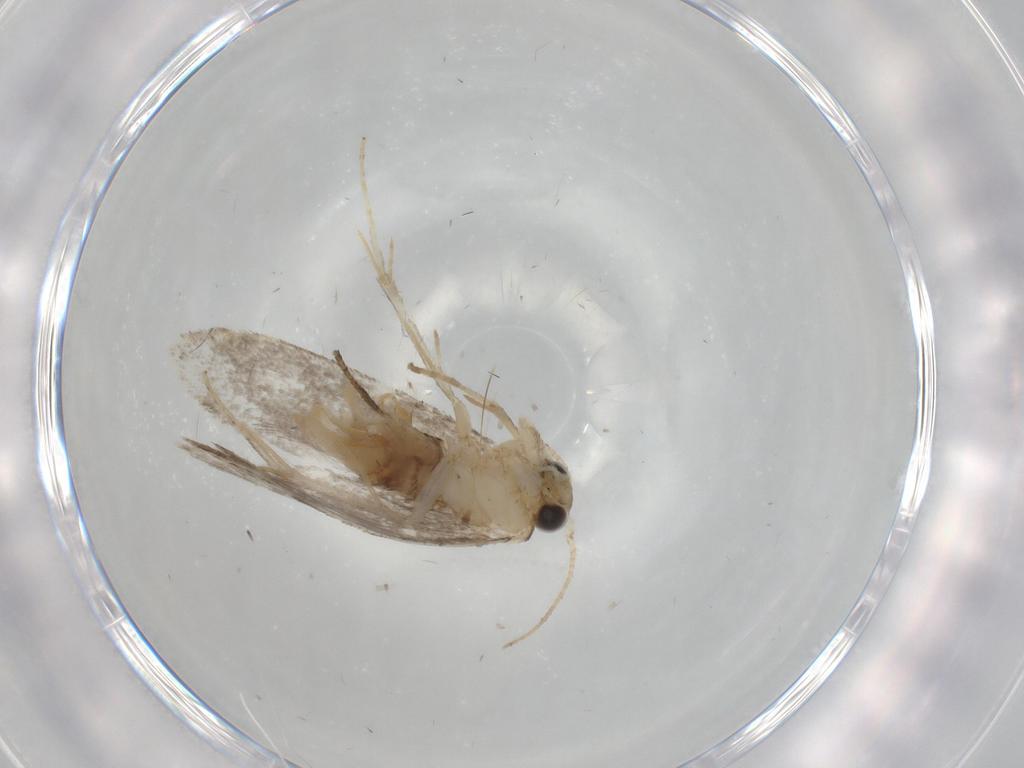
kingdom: Animalia
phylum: Arthropoda
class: Insecta
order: Lepidoptera
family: Tineidae
